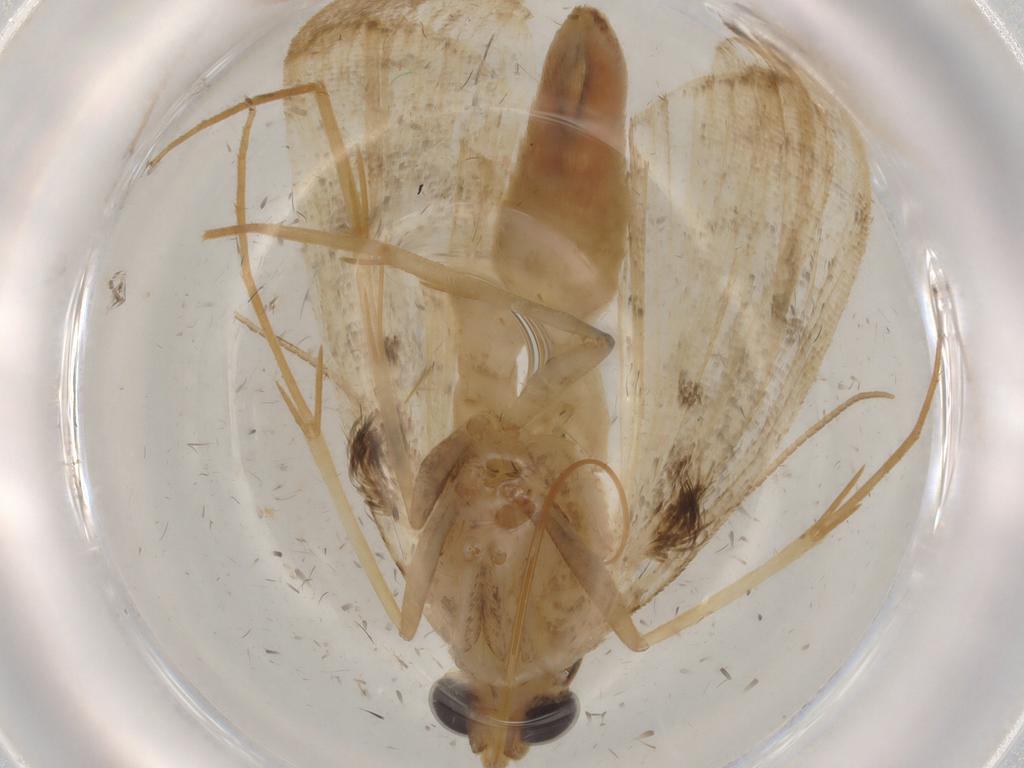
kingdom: Animalia
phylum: Arthropoda
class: Insecta
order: Lepidoptera
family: Crambidae
